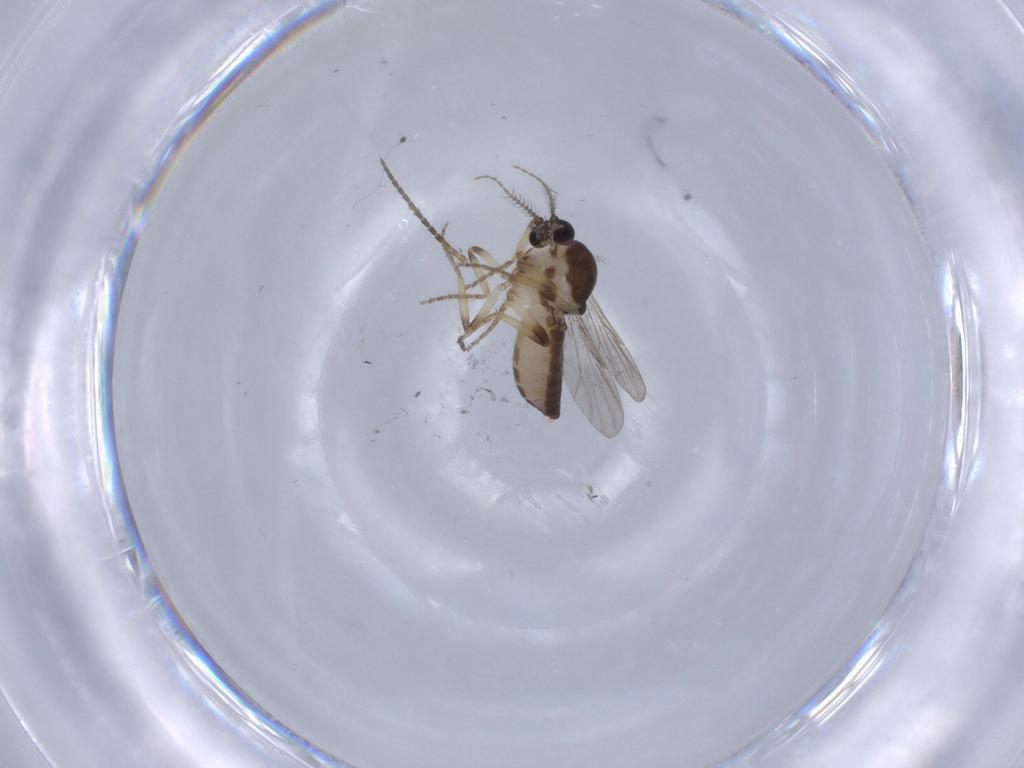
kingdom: Animalia
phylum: Arthropoda
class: Insecta
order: Diptera
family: Ceratopogonidae
